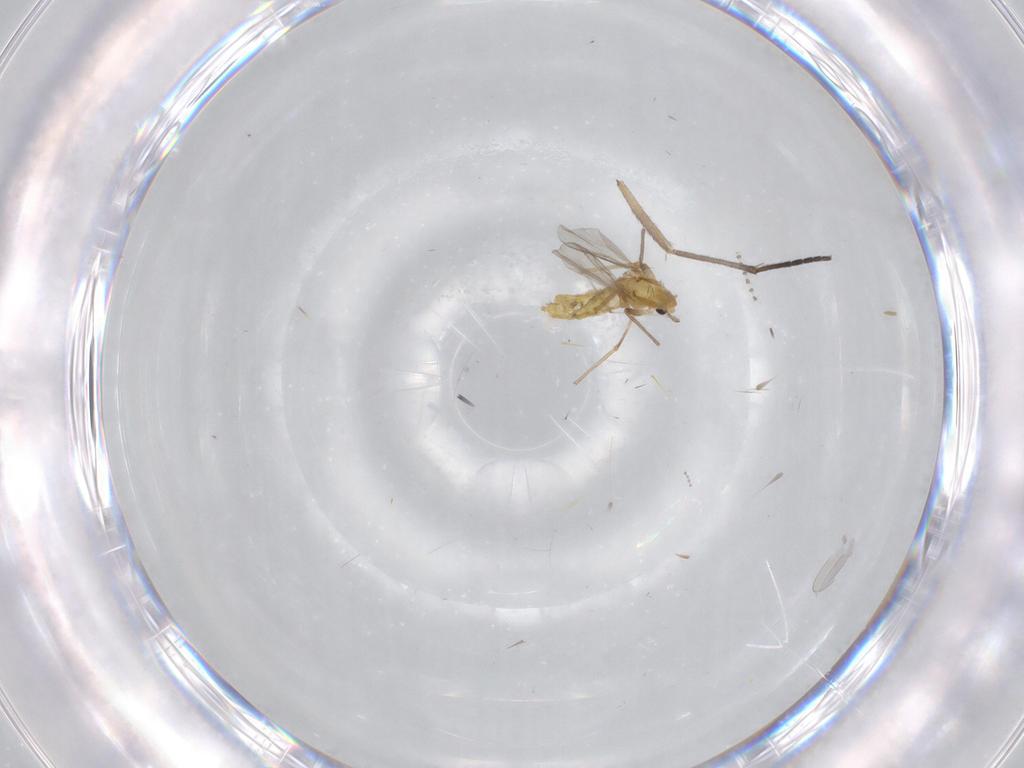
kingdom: Animalia
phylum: Arthropoda
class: Insecta
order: Diptera
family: Chironomidae
